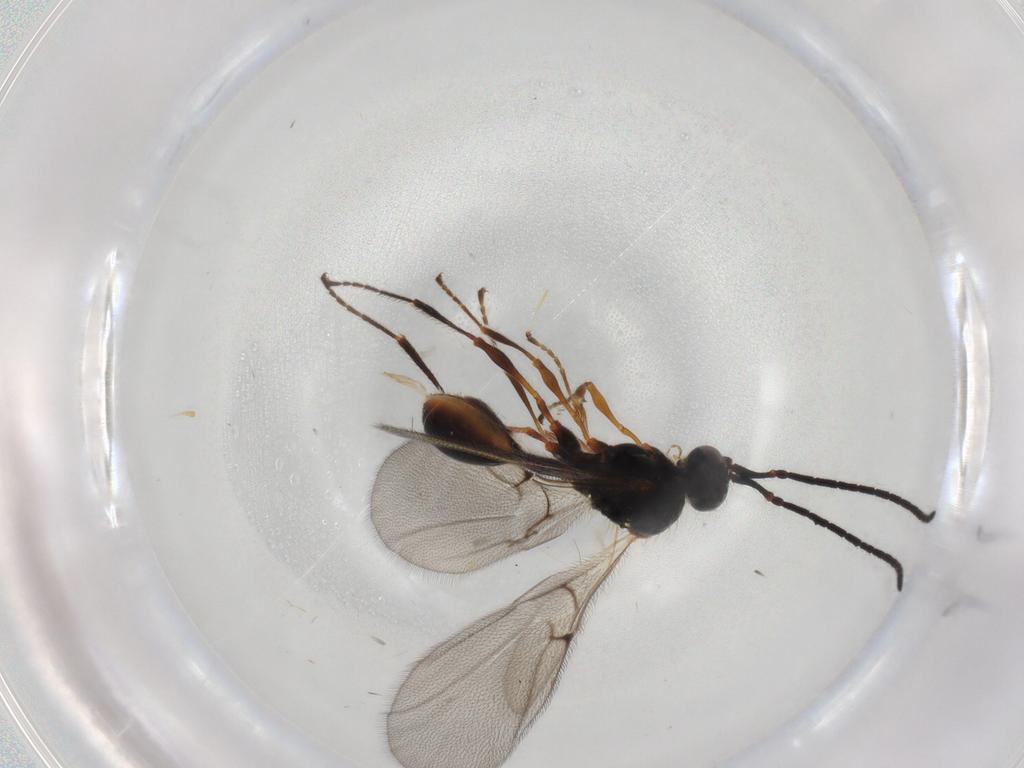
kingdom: Animalia
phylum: Arthropoda
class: Insecta
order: Hymenoptera
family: Diapriidae
